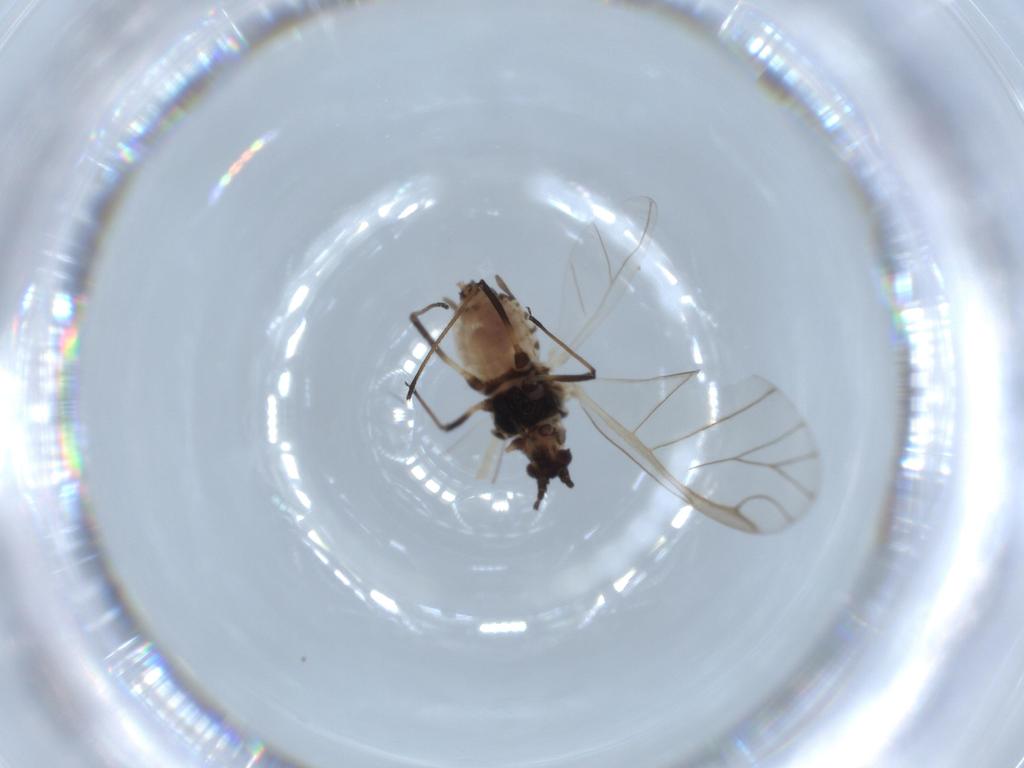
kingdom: Animalia
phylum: Arthropoda
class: Insecta
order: Hemiptera
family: Aphididae
